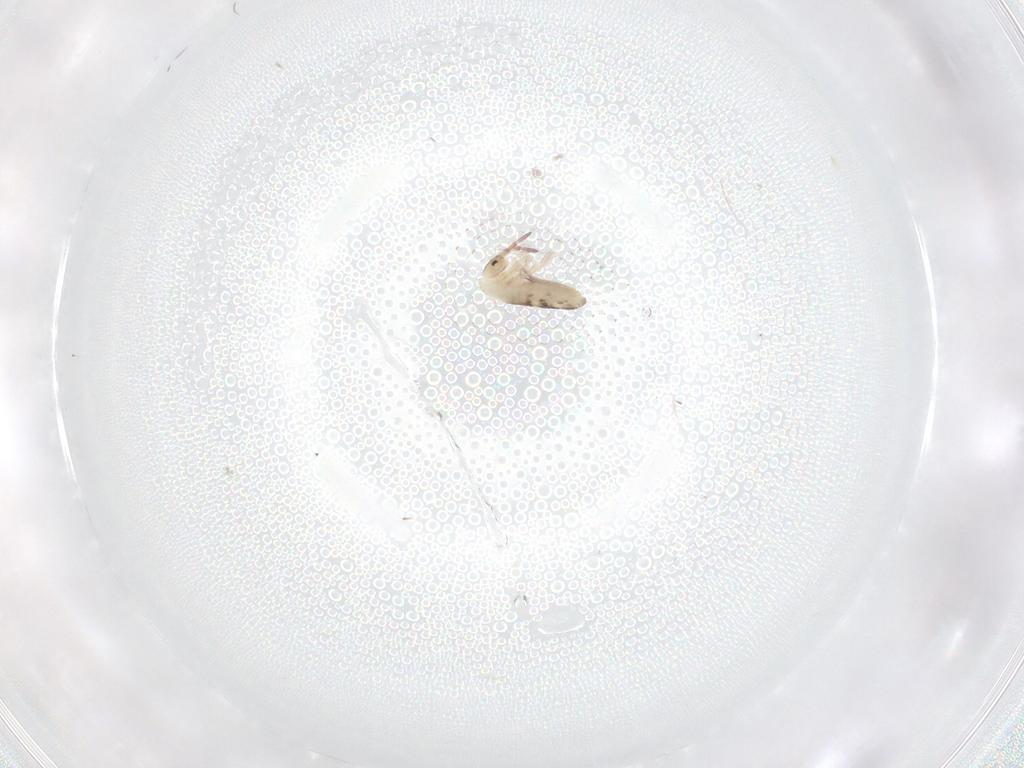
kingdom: Animalia
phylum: Arthropoda
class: Collembola
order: Entomobryomorpha
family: Entomobryidae
